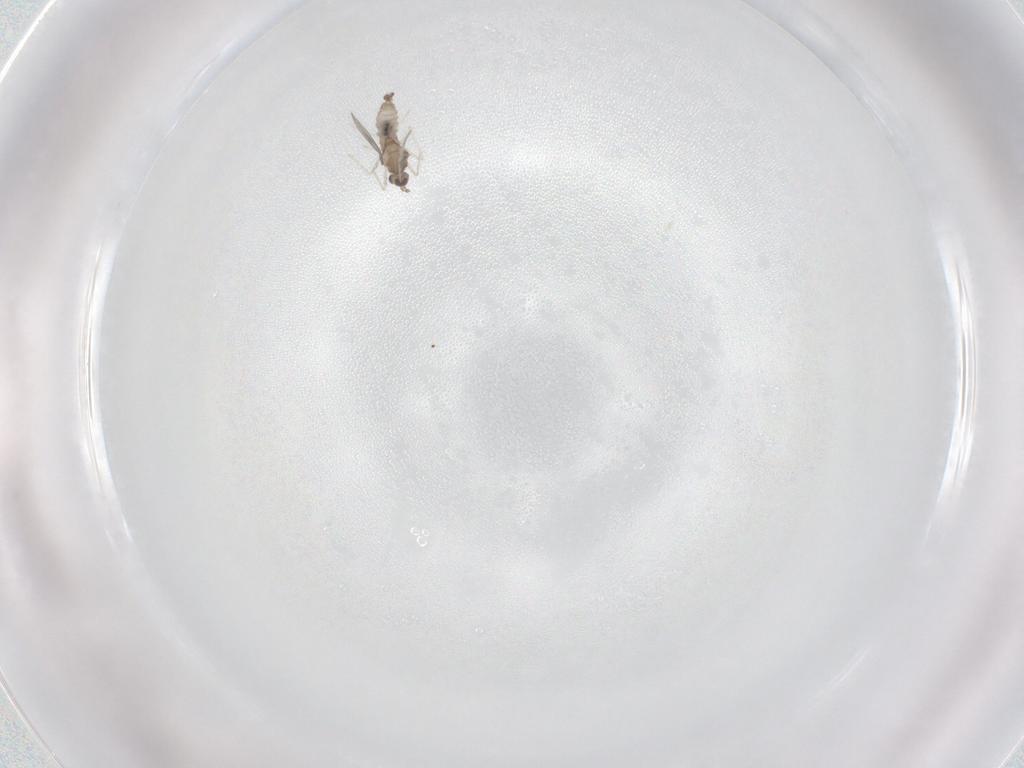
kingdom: Animalia
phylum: Arthropoda
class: Insecta
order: Diptera
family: Cecidomyiidae
